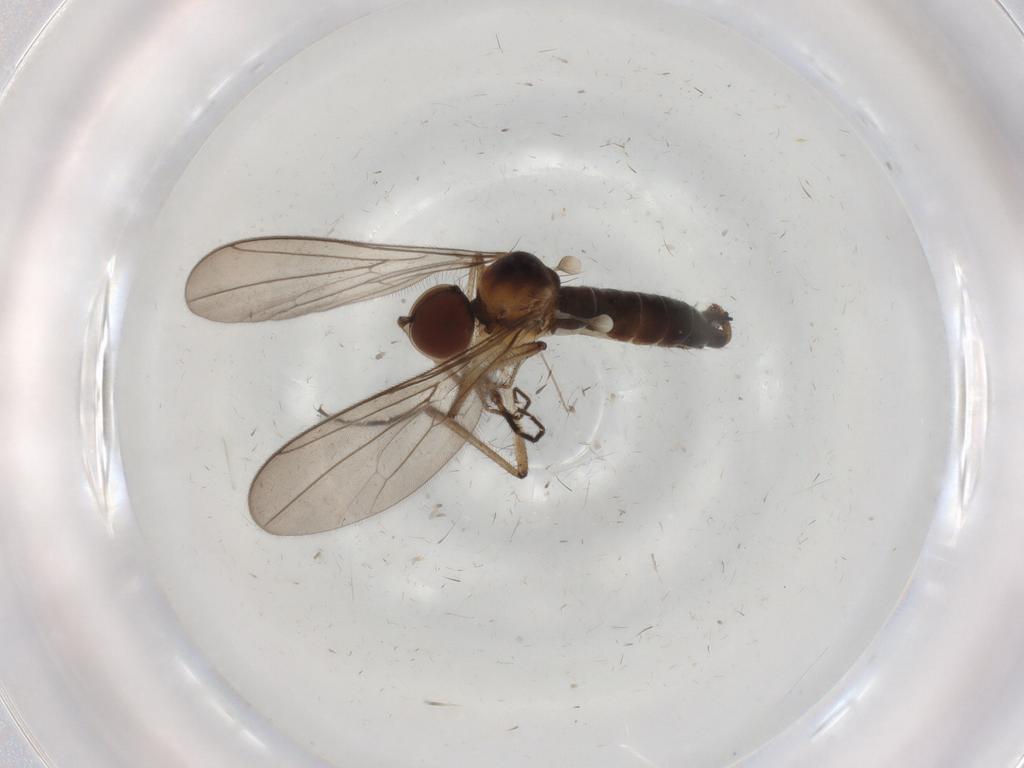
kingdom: Animalia
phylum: Arthropoda
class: Insecta
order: Diptera
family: Hybotidae
